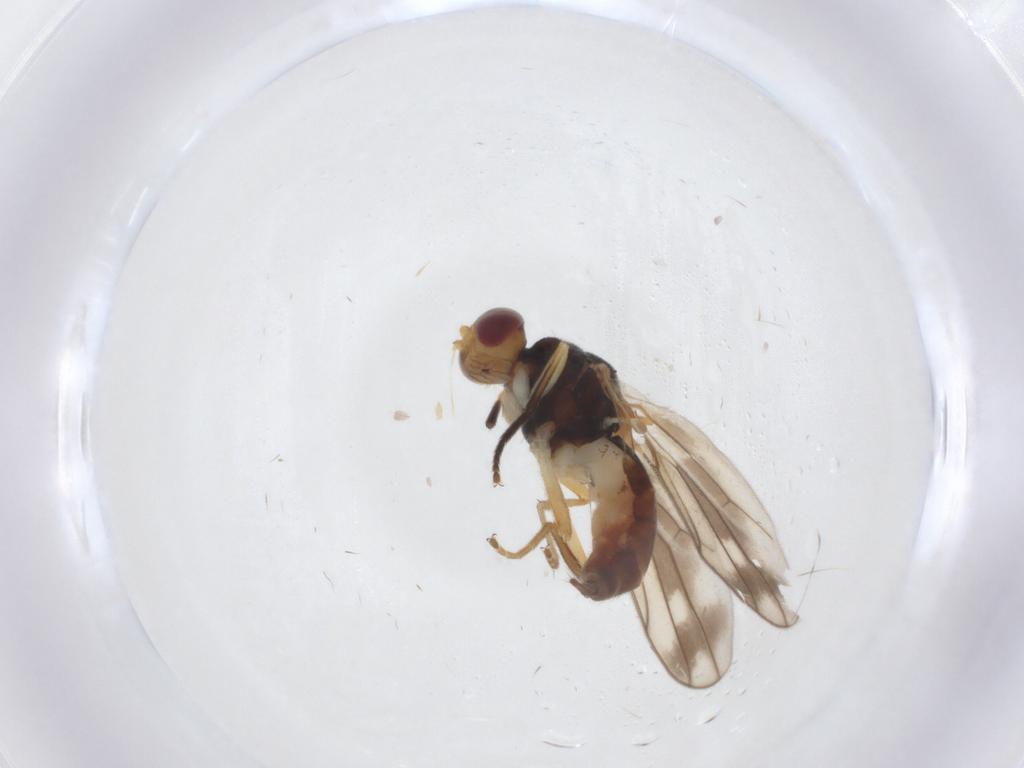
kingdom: Animalia
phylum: Arthropoda
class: Insecta
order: Diptera
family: Chloropidae
